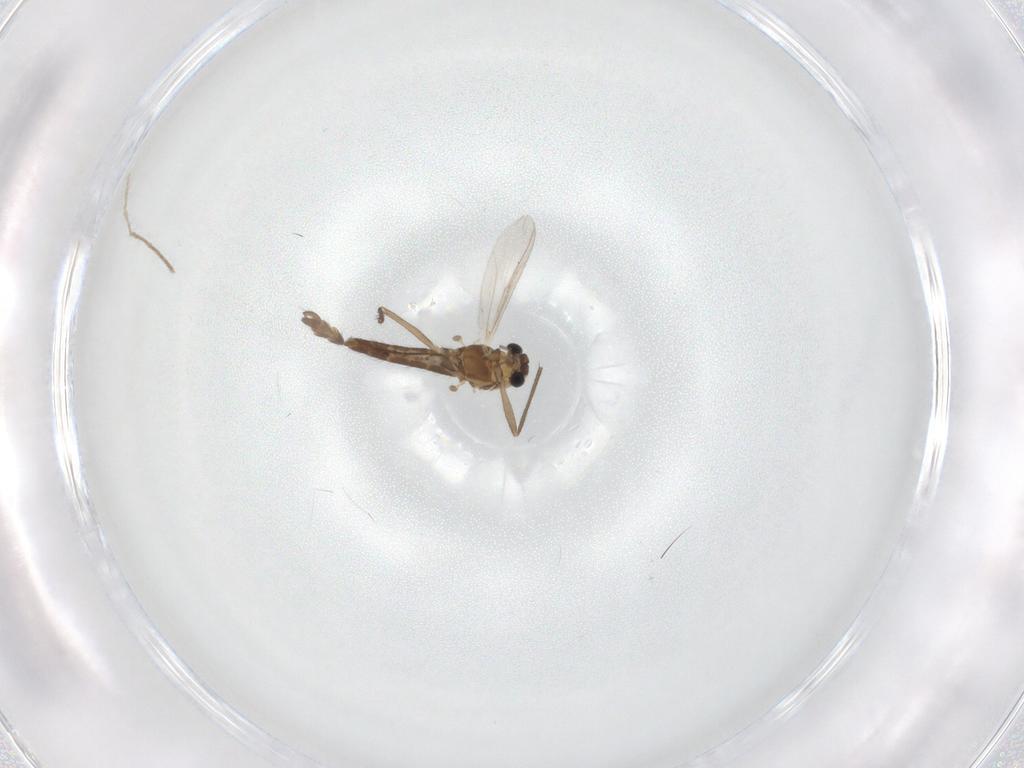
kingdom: Animalia
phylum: Arthropoda
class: Insecta
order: Diptera
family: Chironomidae
